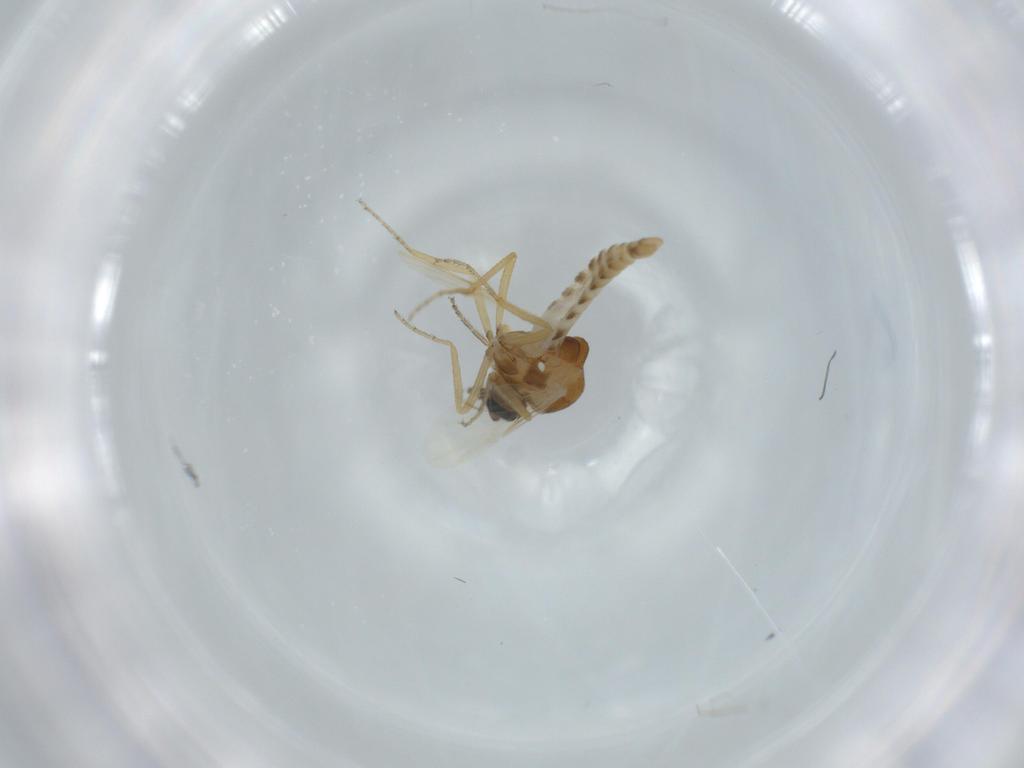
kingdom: Animalia
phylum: Arthropoda
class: Insecta
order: Diptera
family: Ceratopogonidae
